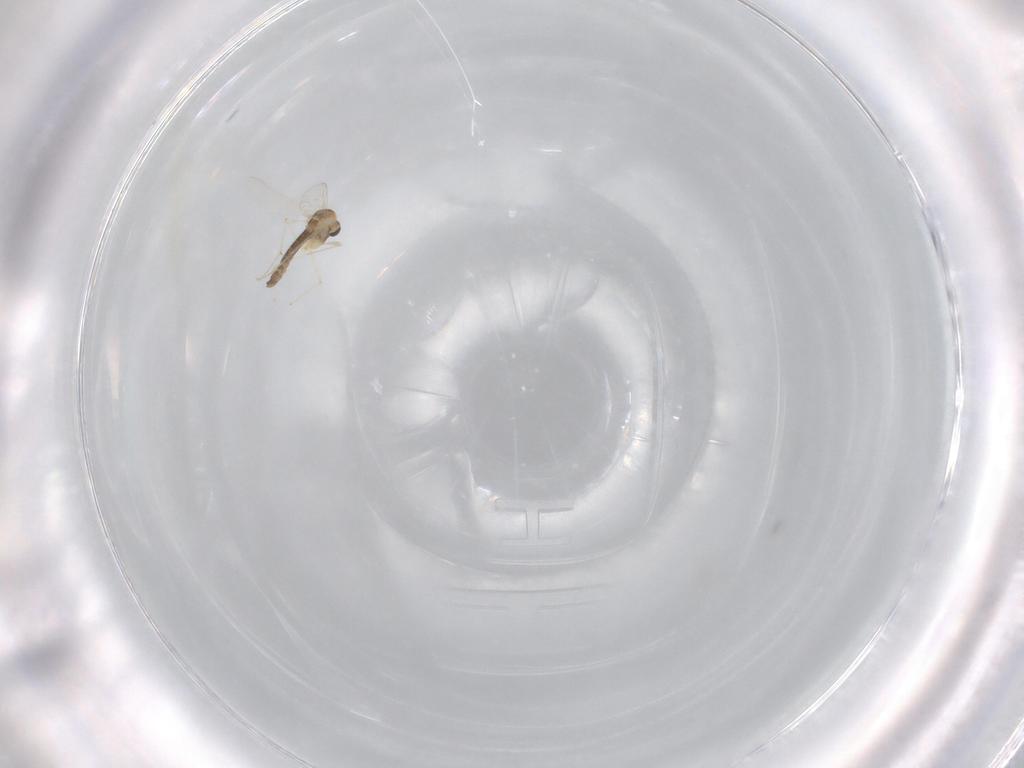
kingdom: Animalia
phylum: Arthropoda
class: Insecta
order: Diptera
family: Chironomidae
